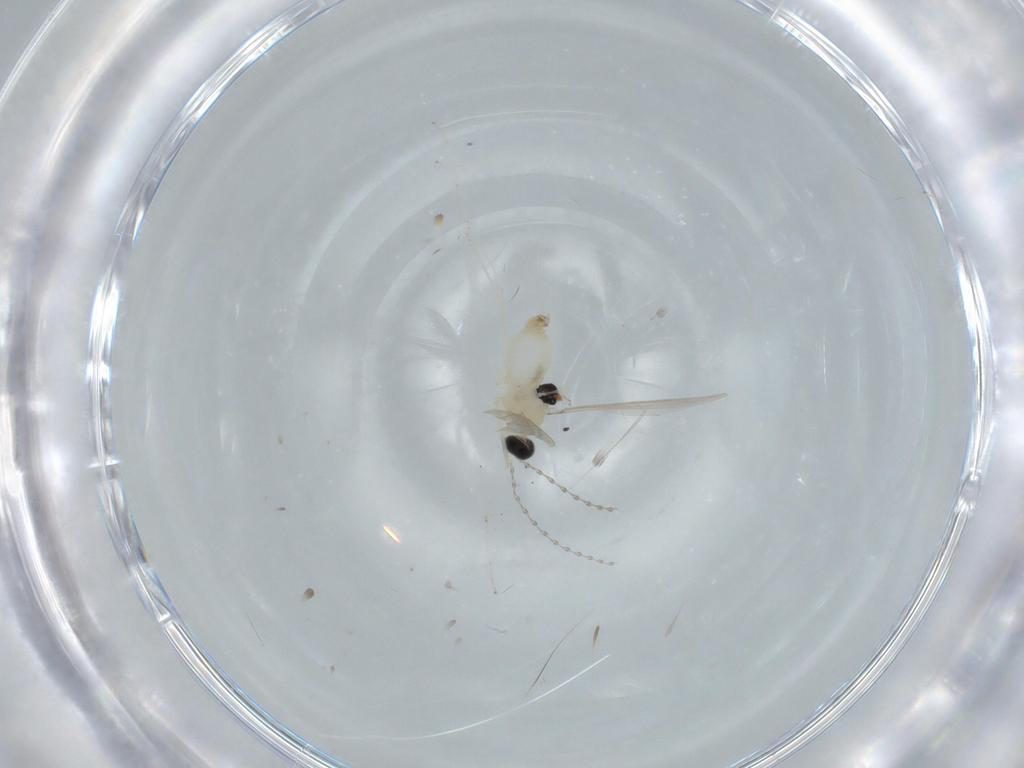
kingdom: Animalia
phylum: Arthropoda
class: Insecta
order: Diptera
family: Cecidomyiidae
